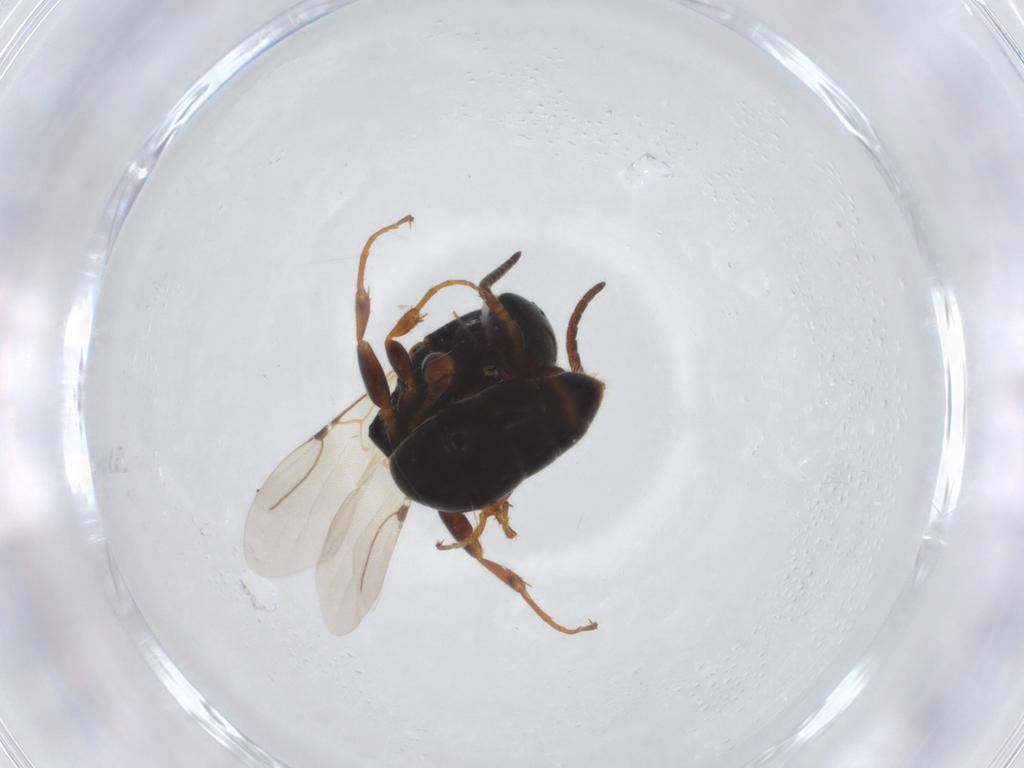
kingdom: Animalia
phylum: Arthropoda
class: Insecta
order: Hymenoptera
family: Bethylidae
